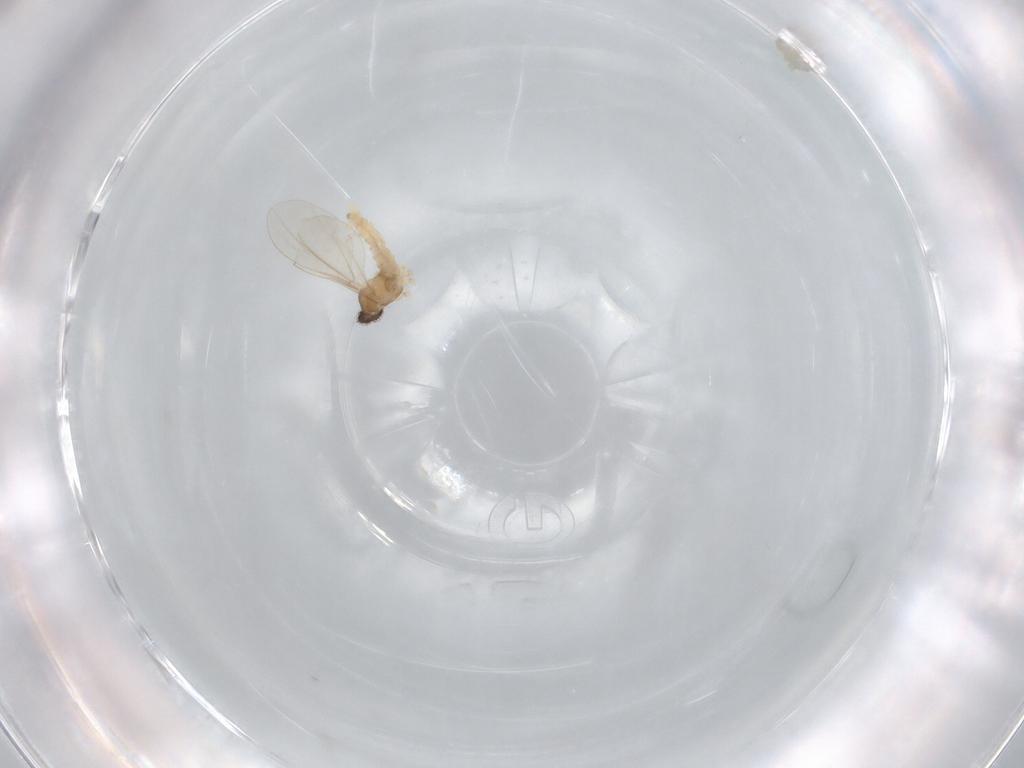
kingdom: Animalia
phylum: Arthropoda
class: Insecta
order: Diptera
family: Cecidomyiidae
